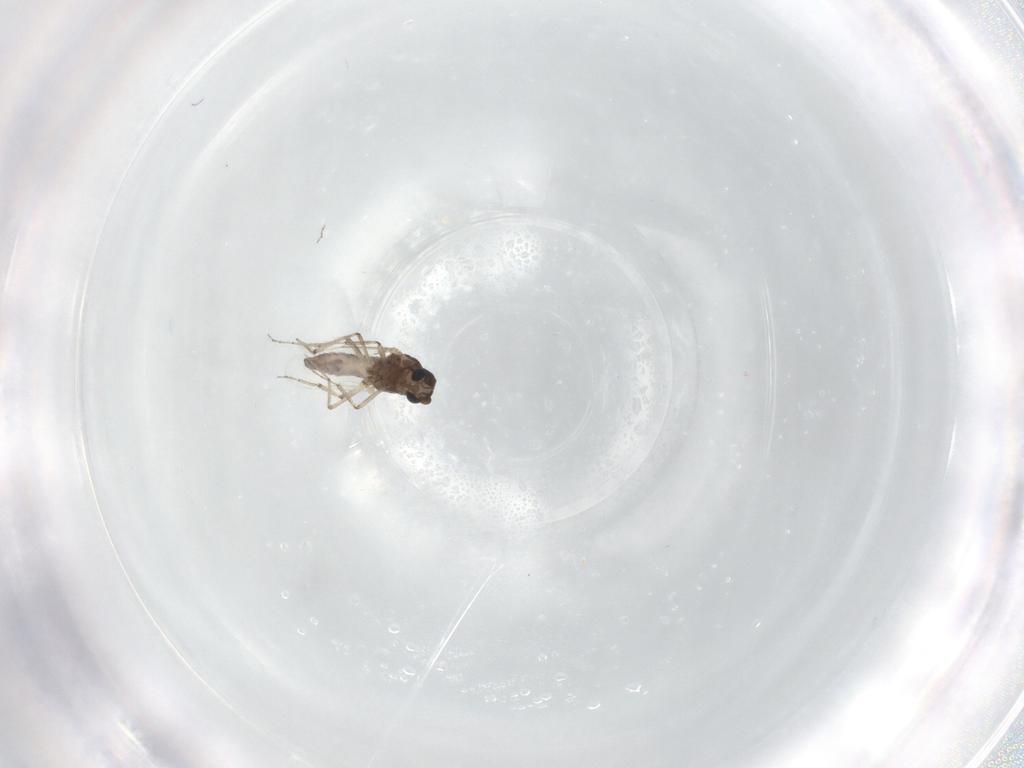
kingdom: Animalia
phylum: Arthropoda
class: Insecta
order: Diptera
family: Ceratopogonidae
